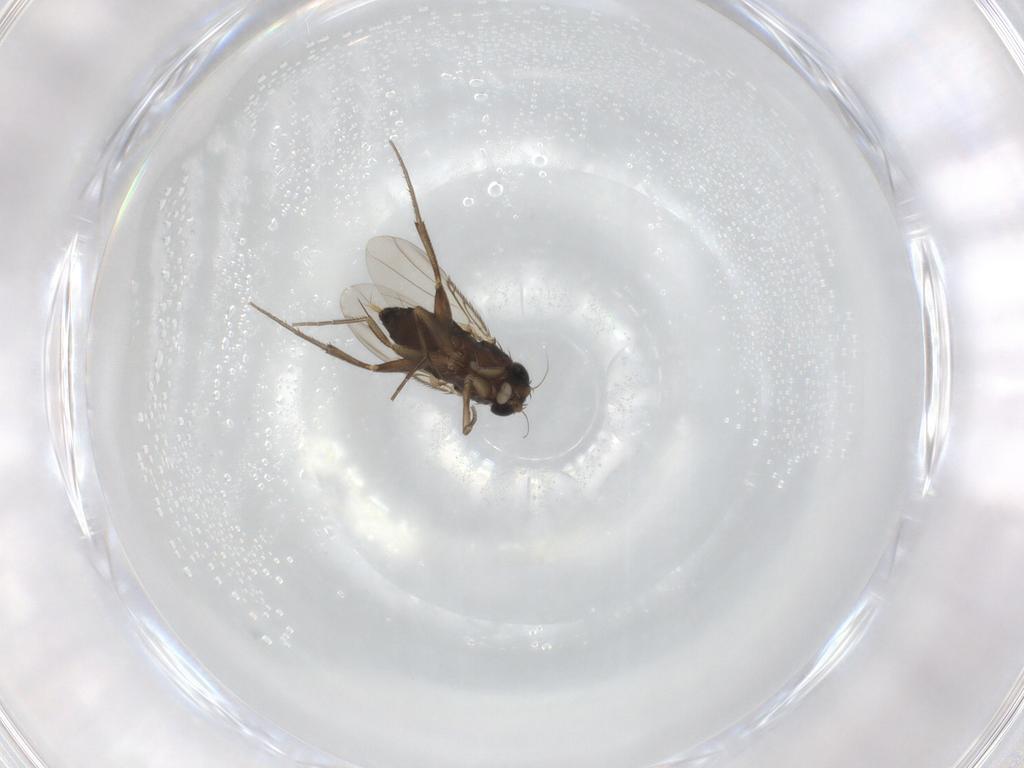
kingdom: Animalia
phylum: Arthropoda
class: Insecta
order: Diptera
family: Phoridae
